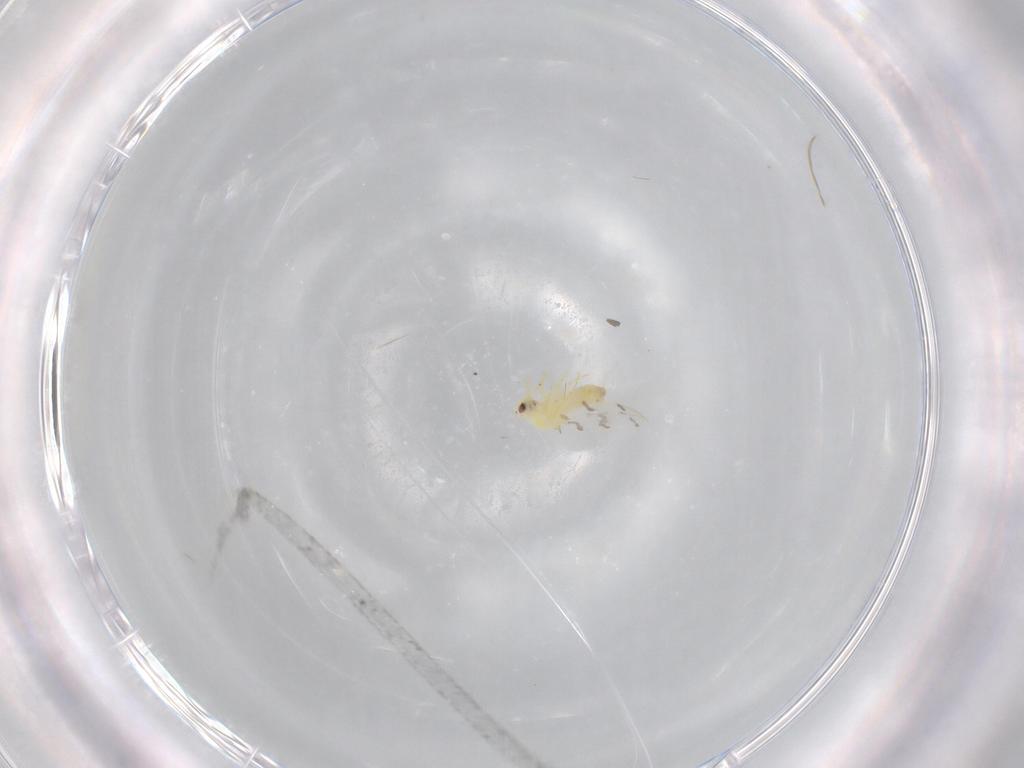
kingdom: Animalia
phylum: Arthropoda
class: Insecta
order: Hemiptera
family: Aleyrodidae
